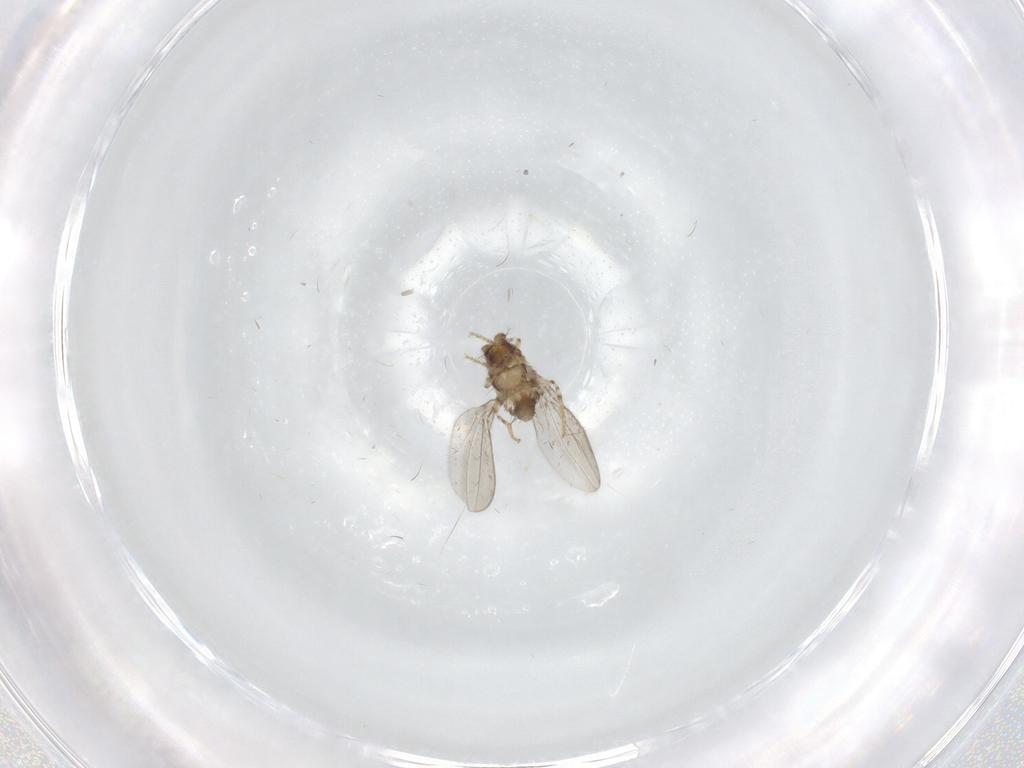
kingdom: Animalia
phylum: Arthropoda
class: Insecta
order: Diptera
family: Asteiidae
